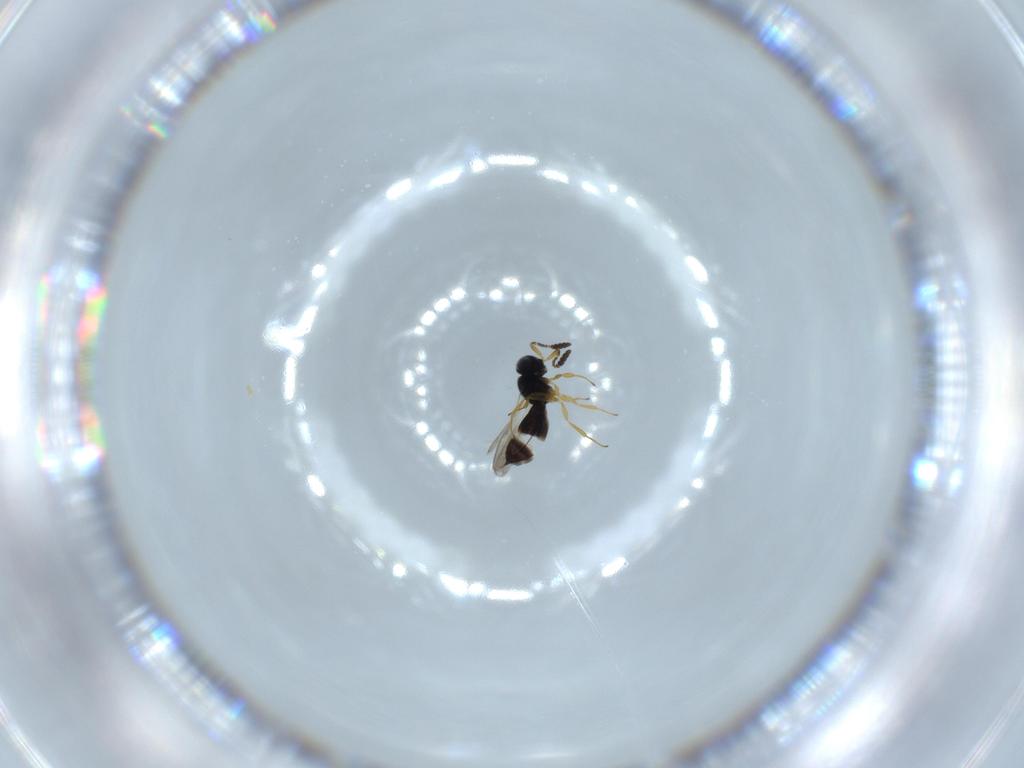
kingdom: Animalia
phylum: Arthropoda
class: Insecta
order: Hymenoptera
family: Scelionidae
